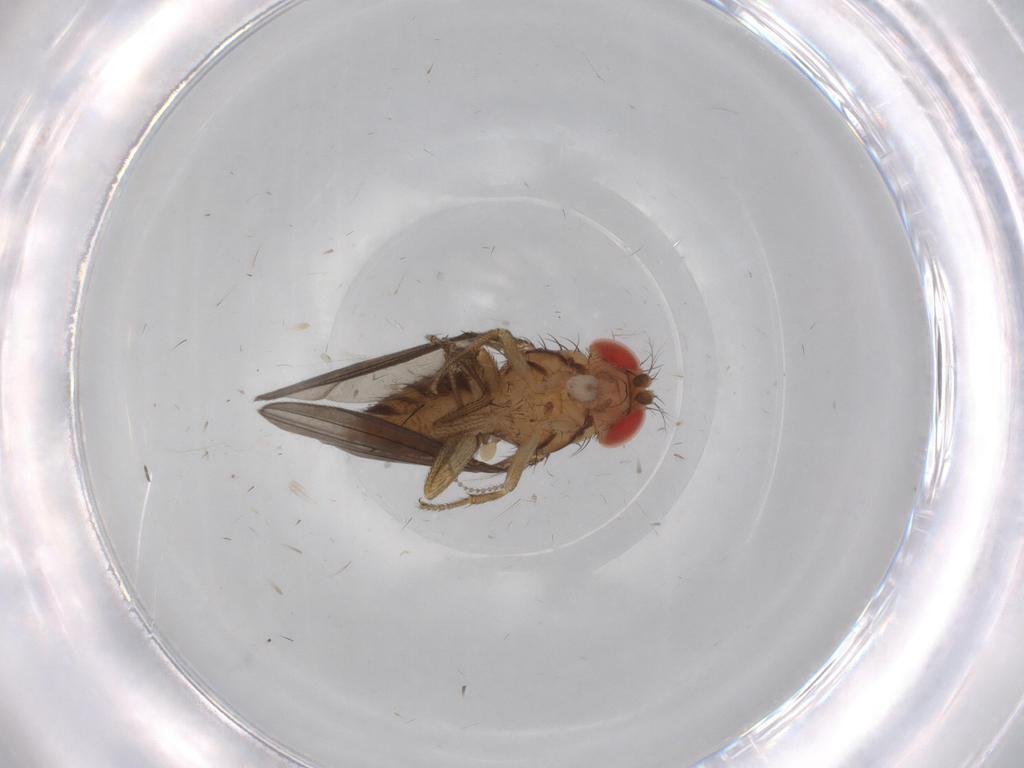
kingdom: Animalia
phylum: Arthropoda
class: Insecta
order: Diptera
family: Drosophilidae
